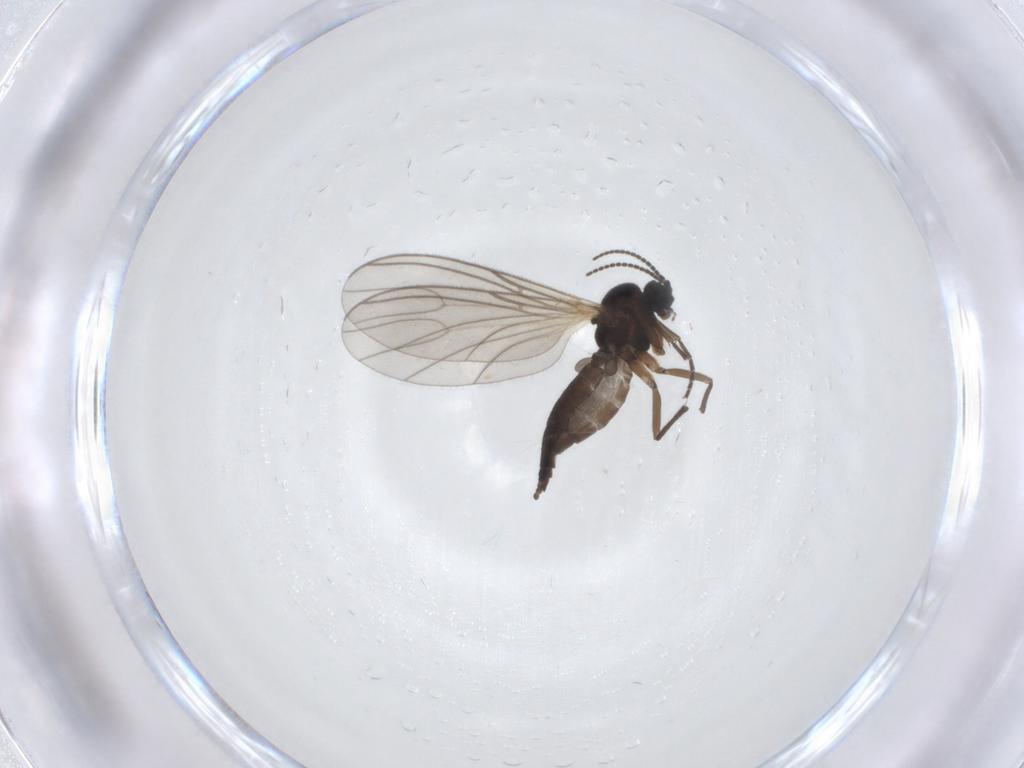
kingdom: Animalia
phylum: Arthropoda
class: Insecta
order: Diptera
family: Sciaridae
